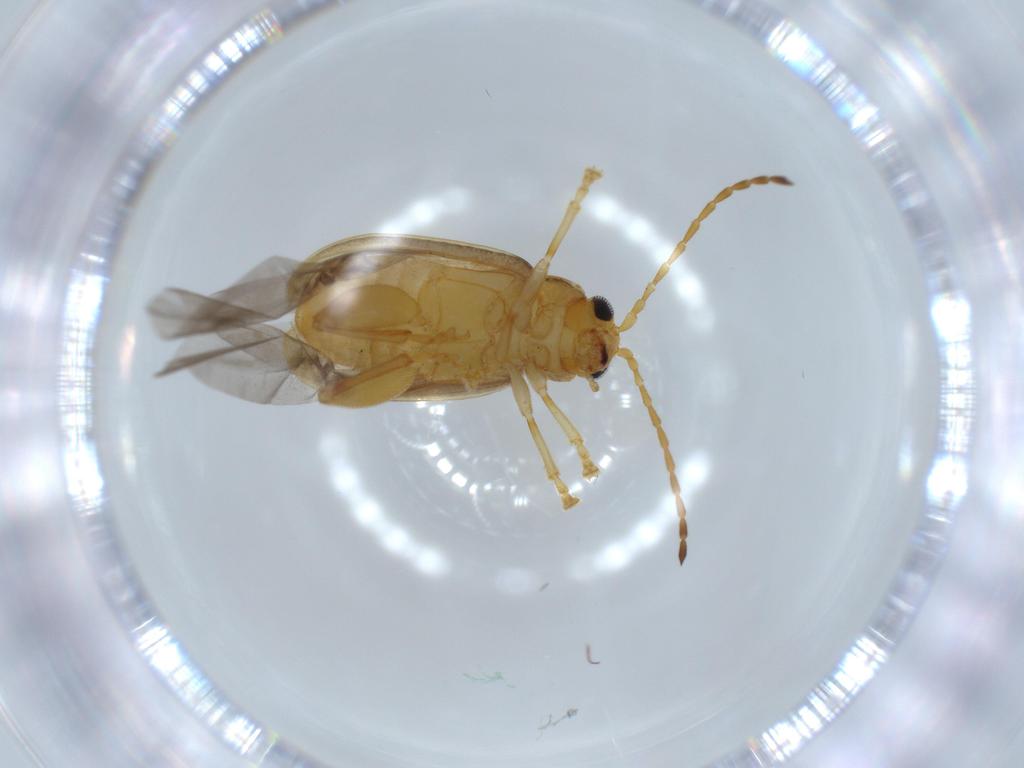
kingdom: Animalia
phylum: Arthropoda
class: Insecta
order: Coleoptera
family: Chrysomelidae
